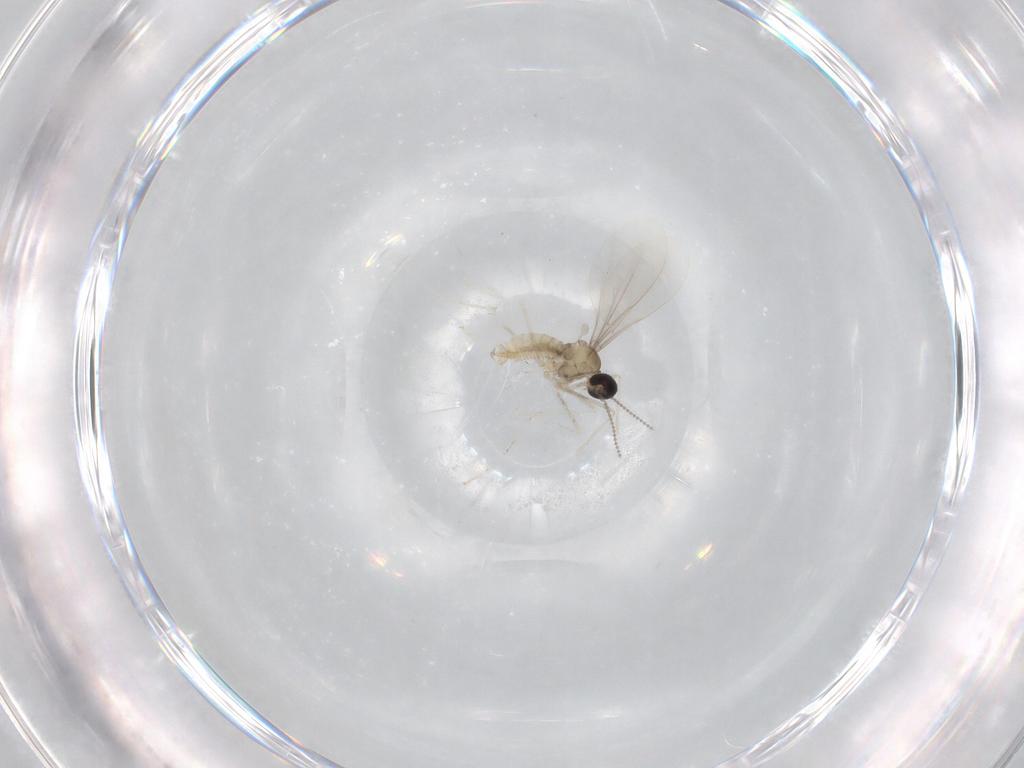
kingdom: Animalia
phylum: Arthropoda
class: Insecta
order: Diptera
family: Cecidomyiidae
